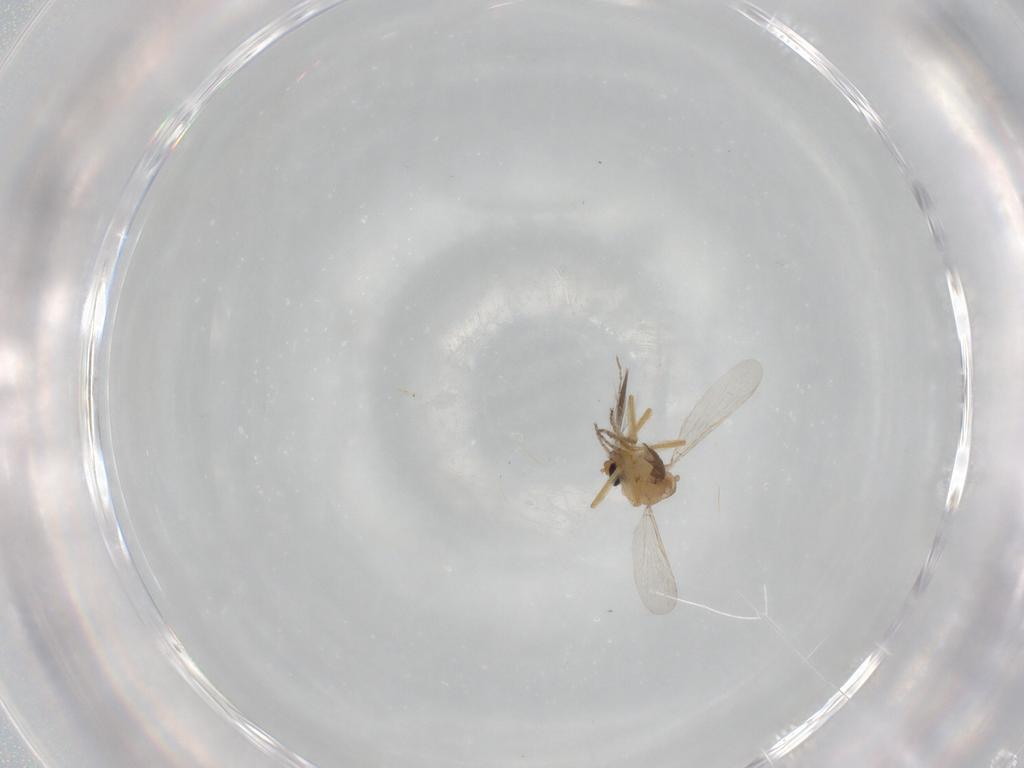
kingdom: Animalia
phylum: Arthropoda
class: Insecta
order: Diptera
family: Ceratopogonidae
